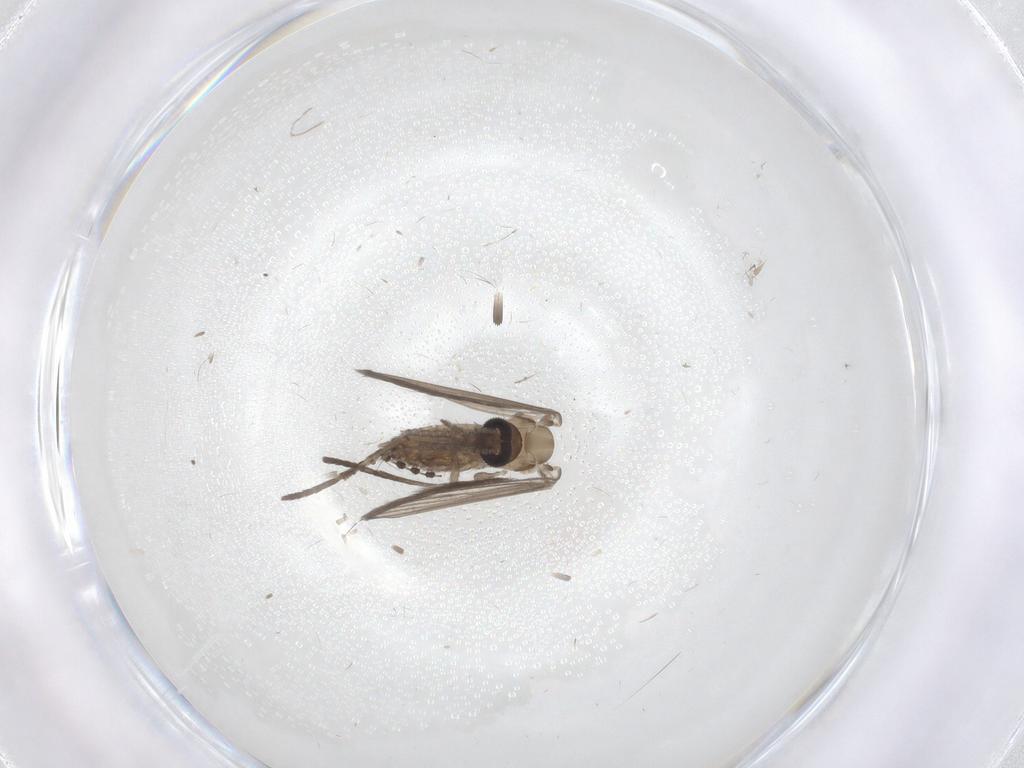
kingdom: Animalia
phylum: Arthropoda
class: Insecta
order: Diptera
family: Psychodidae
